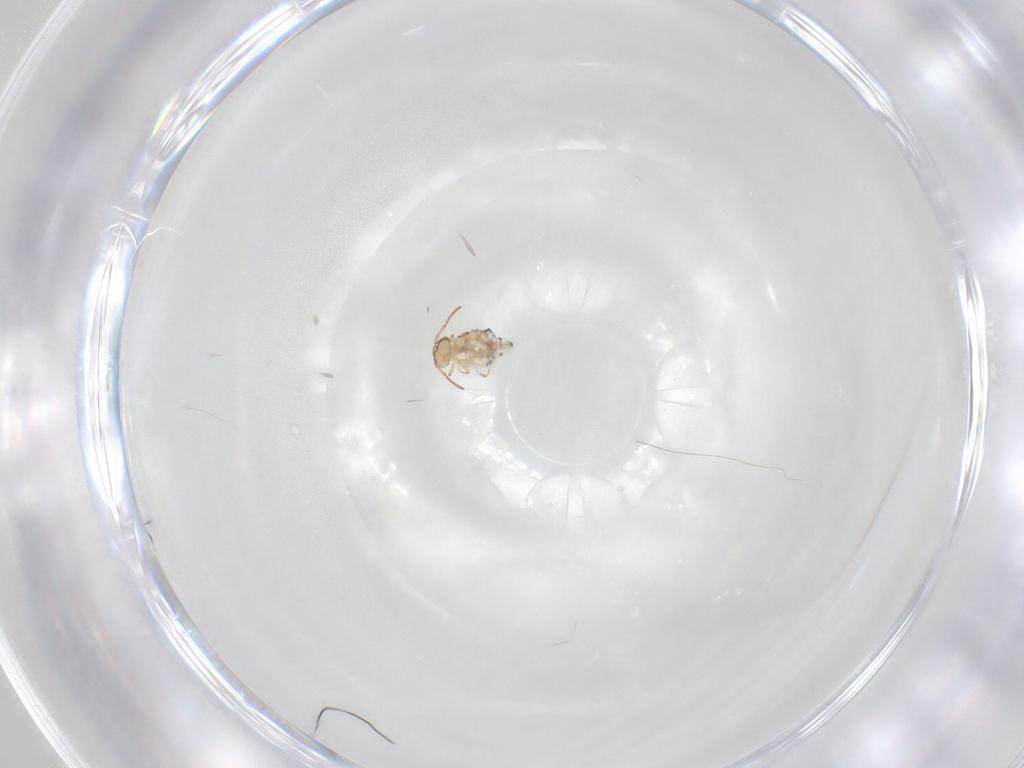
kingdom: Animalia
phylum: Arthropoda
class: Collembola
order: Symphypleona
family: Bourletiellidae
